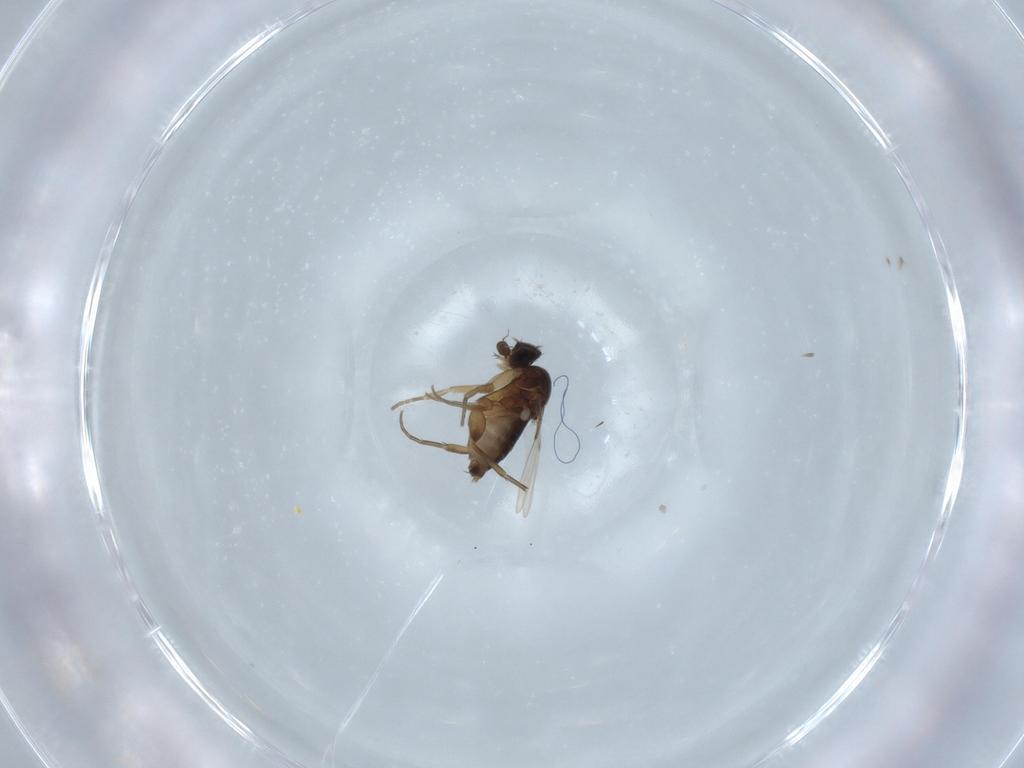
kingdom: Animalia
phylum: Arthropoda
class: Insecta
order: Diptera
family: Phoridae
